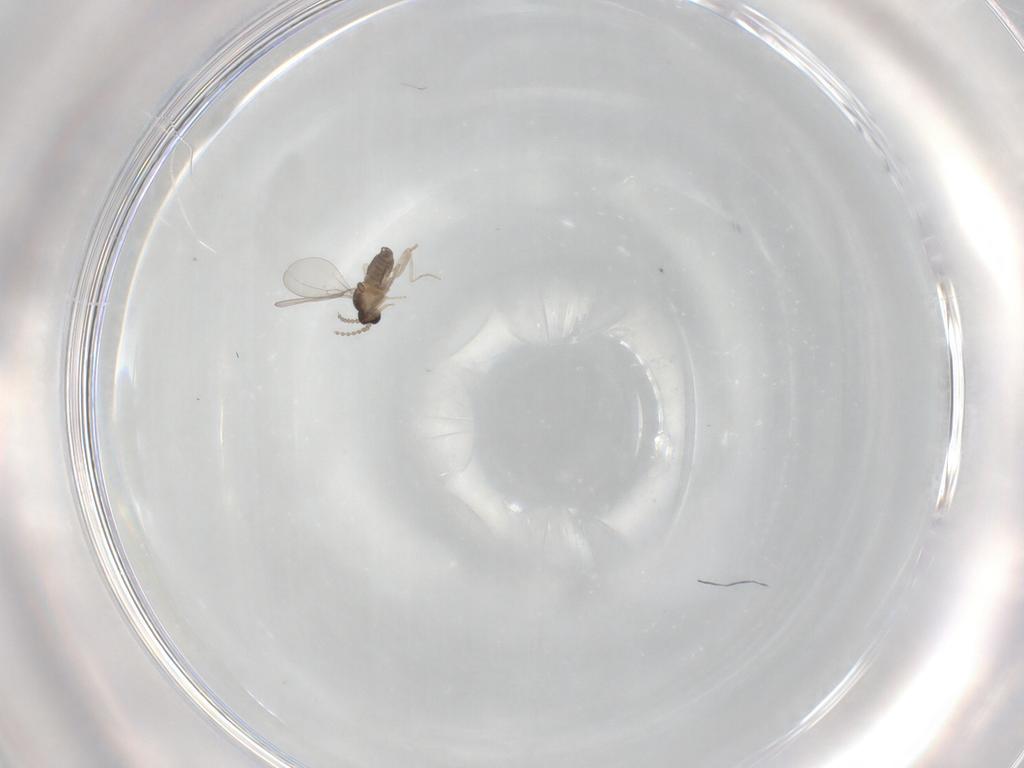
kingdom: Animalia
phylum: Arthropoda
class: Insecta
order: Diptera
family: Cecidomyiidae
